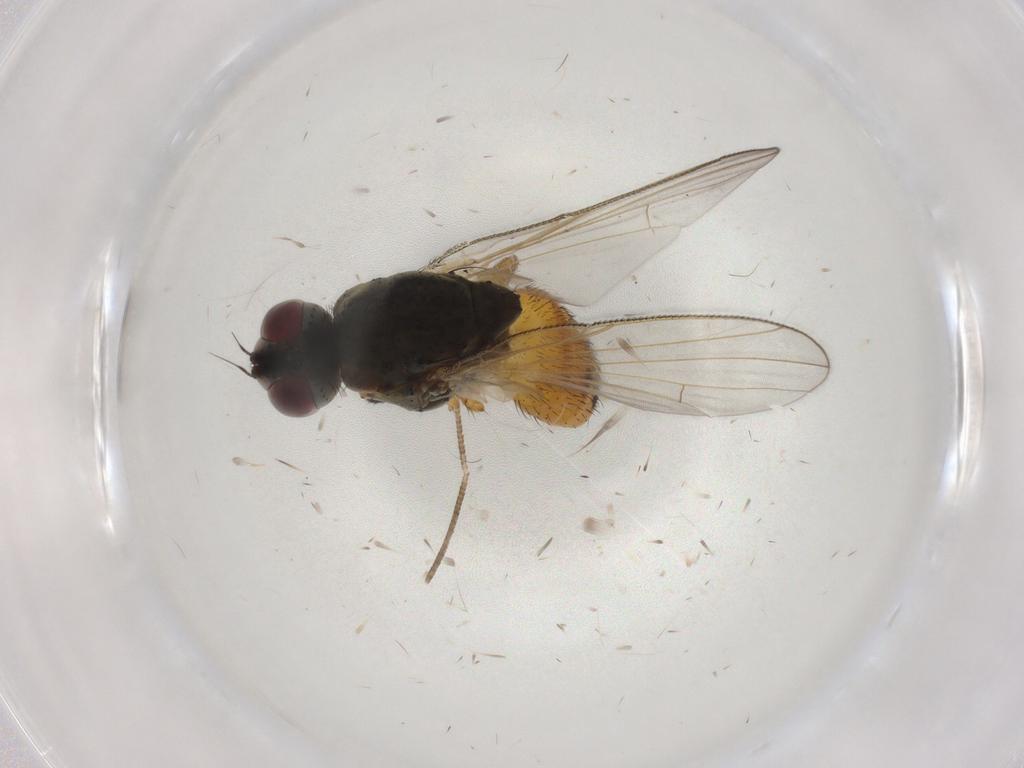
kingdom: Animalia
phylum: Arthropoda
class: Insecta
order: Diptera
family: Muscidae
